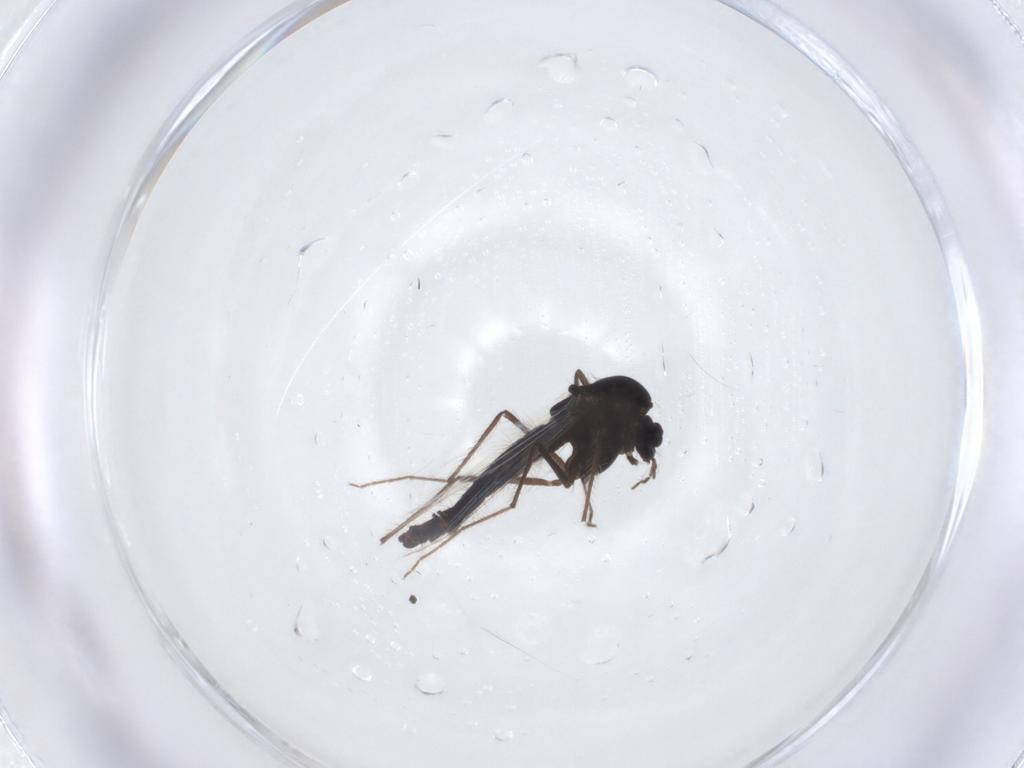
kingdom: Animalia
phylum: Arthropoda
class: Insecta
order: Diptera
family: Chironomidae
